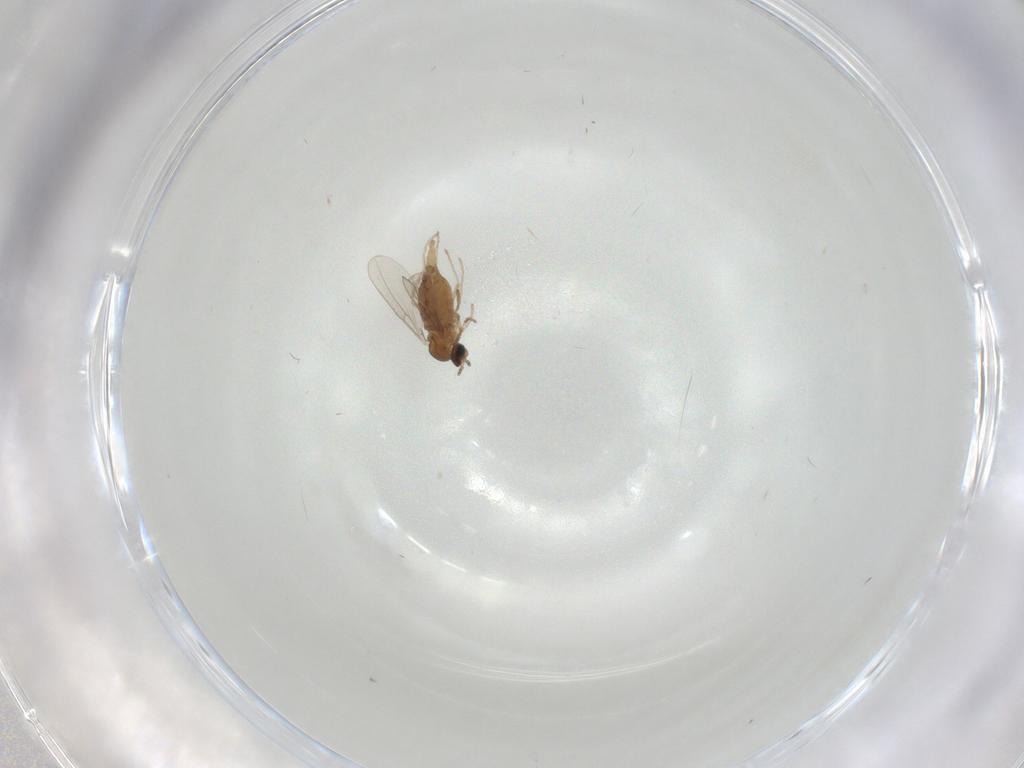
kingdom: Animalia
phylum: Arthropoda
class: Insecta
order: Diptera
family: Cecidomyiidae
